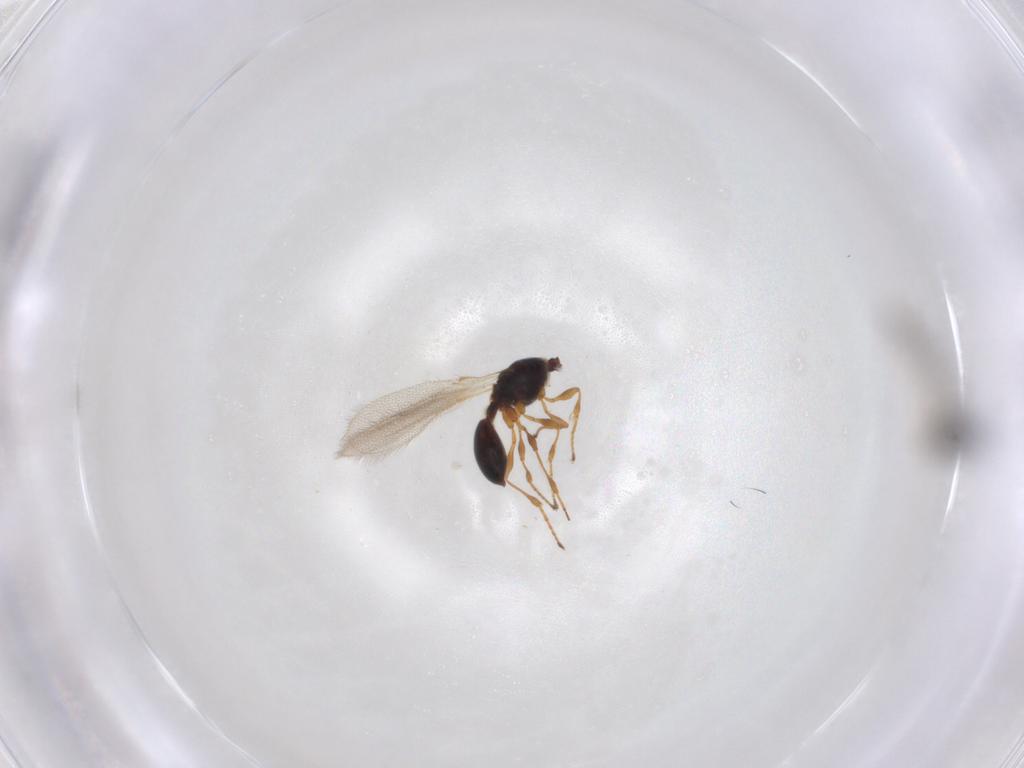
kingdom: Animalia
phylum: Arthropoda
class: Insecta
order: Hymenoptera
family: Diapriidae
